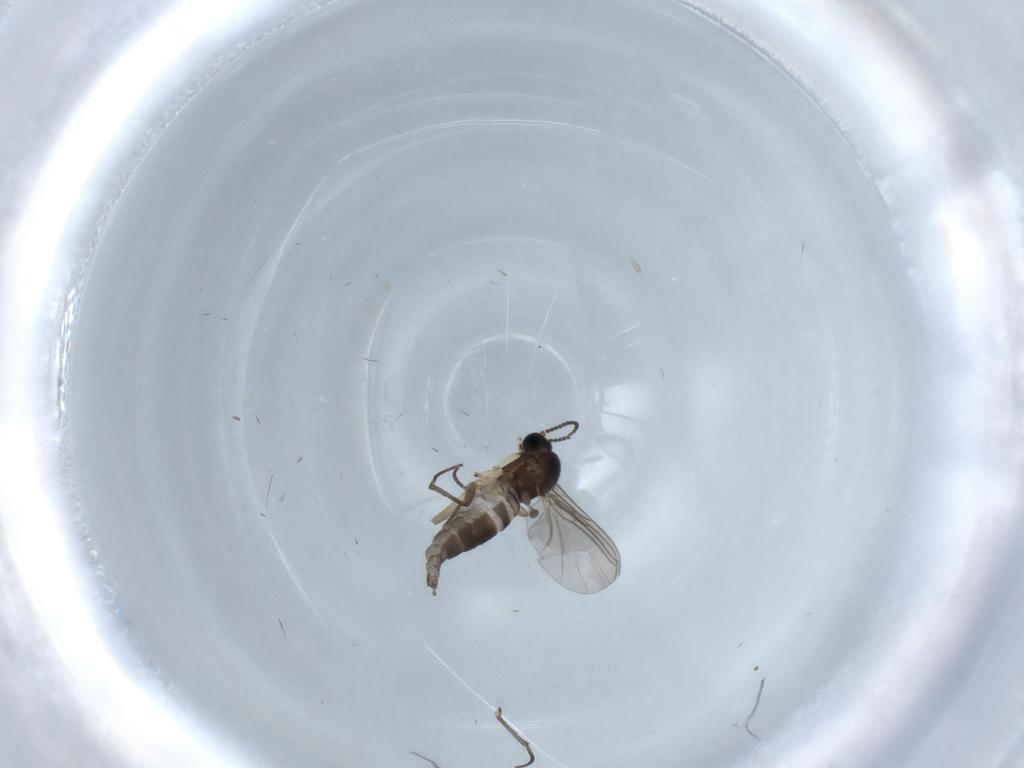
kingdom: Animalia
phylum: Arthropoda
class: Insecta
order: Diptera
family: Sciaridae
